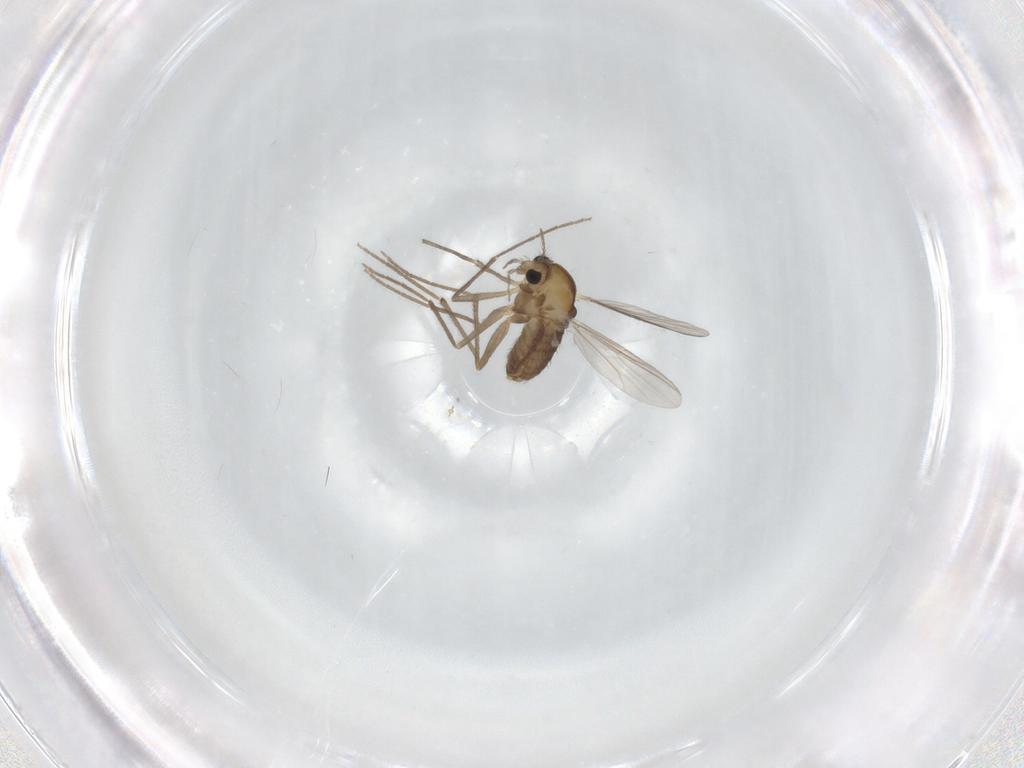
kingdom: Animalia
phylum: Arthropoda
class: Insecta
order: Diptera
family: Chironomidae
